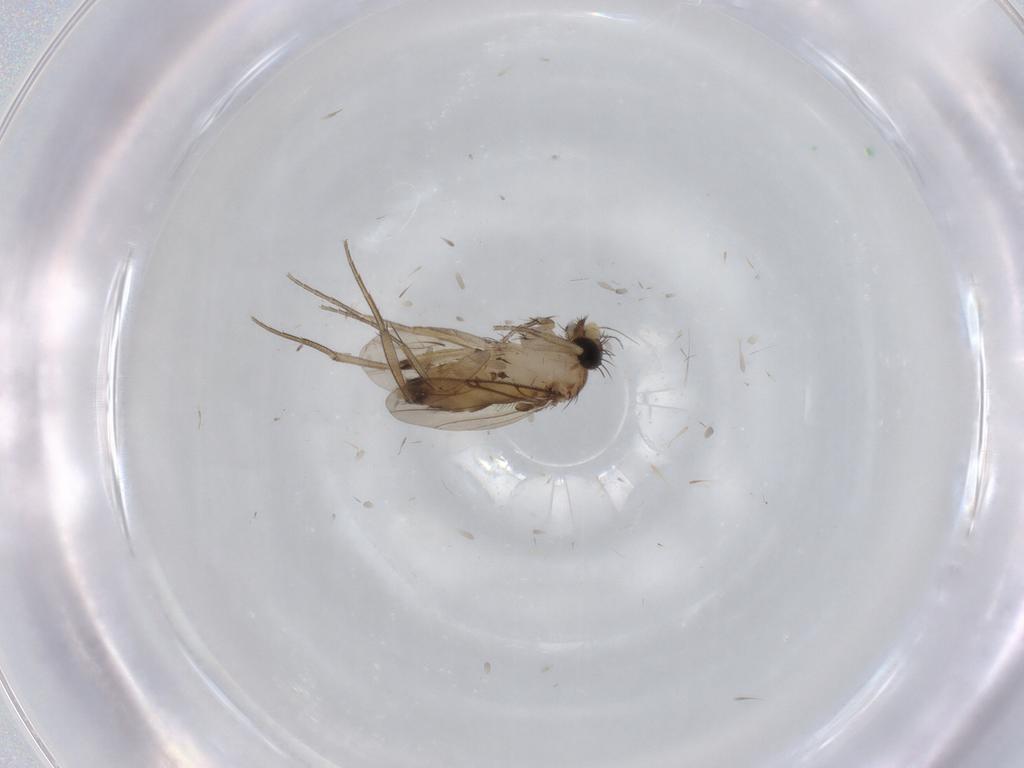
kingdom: Animalia
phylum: Arthropoda
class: Insecta
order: Diptera
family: Phoridae
